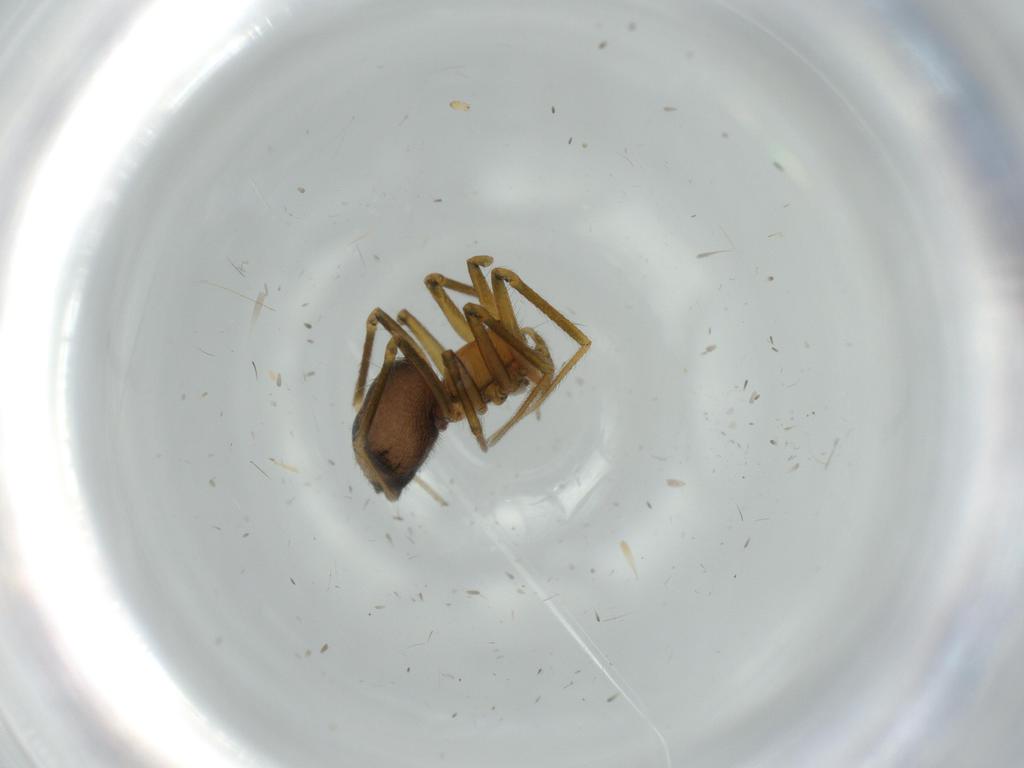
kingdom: Animalia
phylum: Arthropoda
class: Arachnida
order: Araneae
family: Linyphiidae
